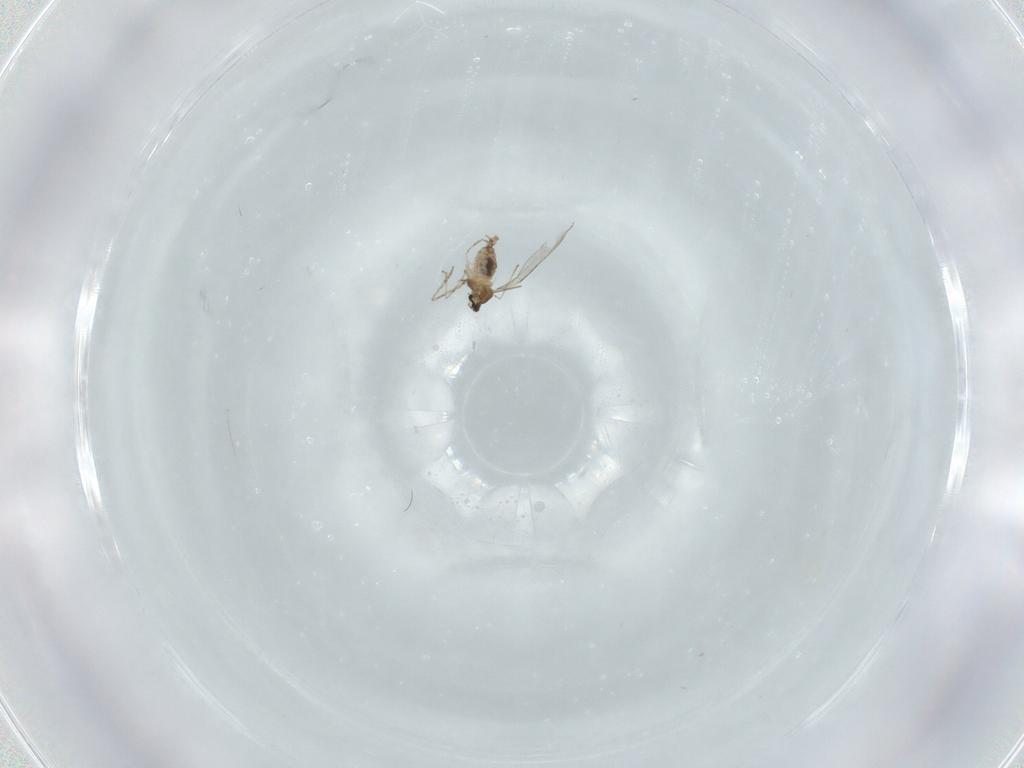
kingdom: Animalia
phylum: Arthropoda
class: Insecta
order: Diptera
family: Cecidomyiidae
